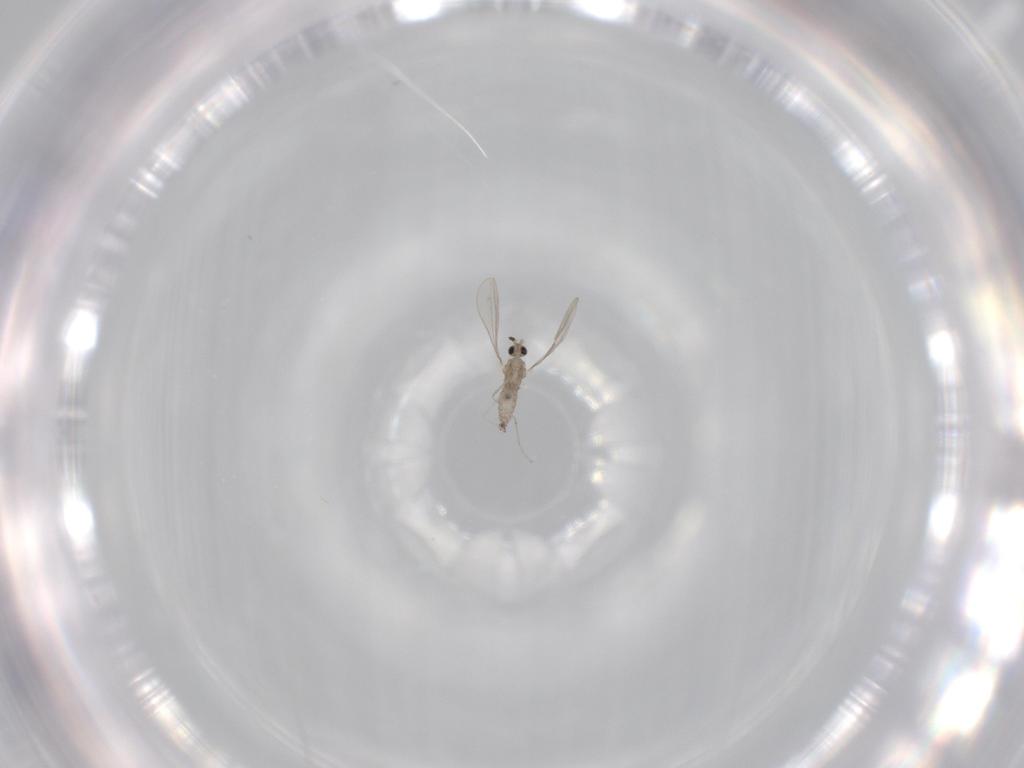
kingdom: Animalia
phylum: Arthropoda
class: Insecta
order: Diptera
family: Cecidomyiidae
